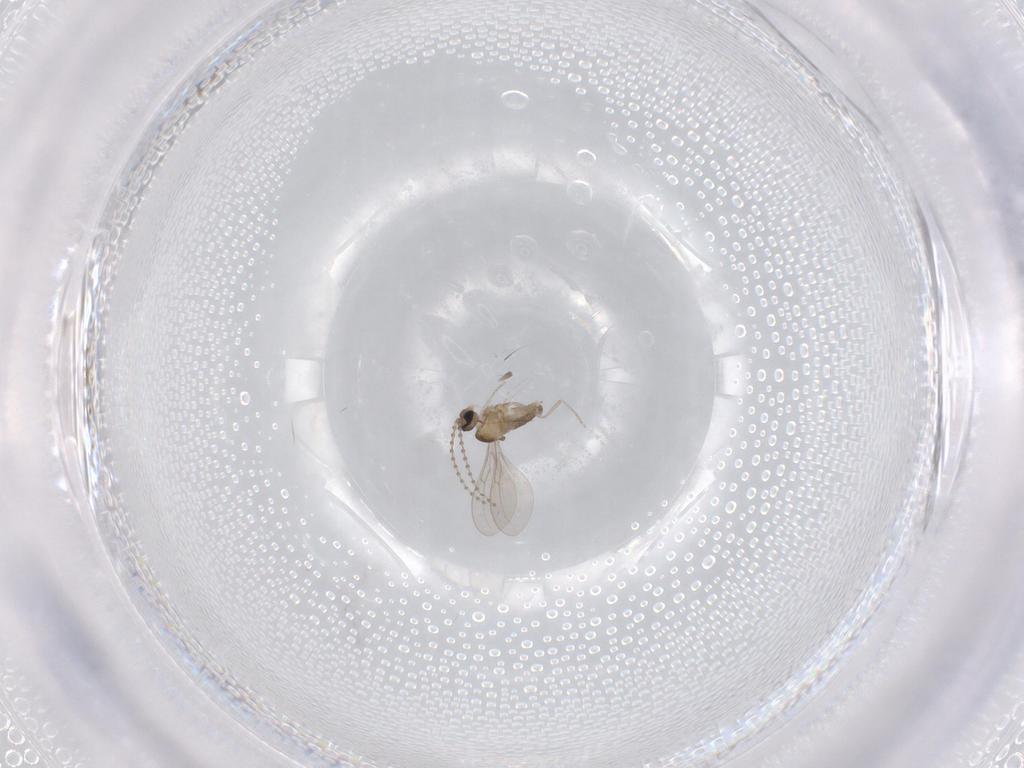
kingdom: Animalia
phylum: Arthropoda
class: Insecta
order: Diptera
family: Cecidomyiidae
